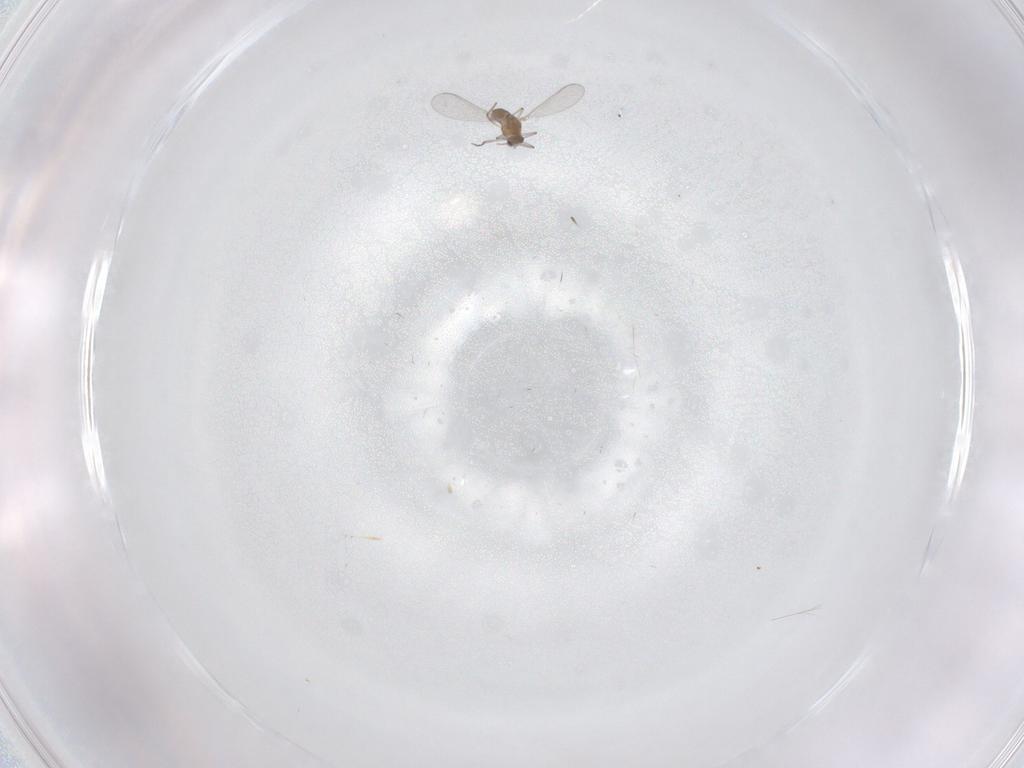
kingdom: Animalia
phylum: Arthropoda
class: Insecta
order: Diptera
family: Chironomidae
